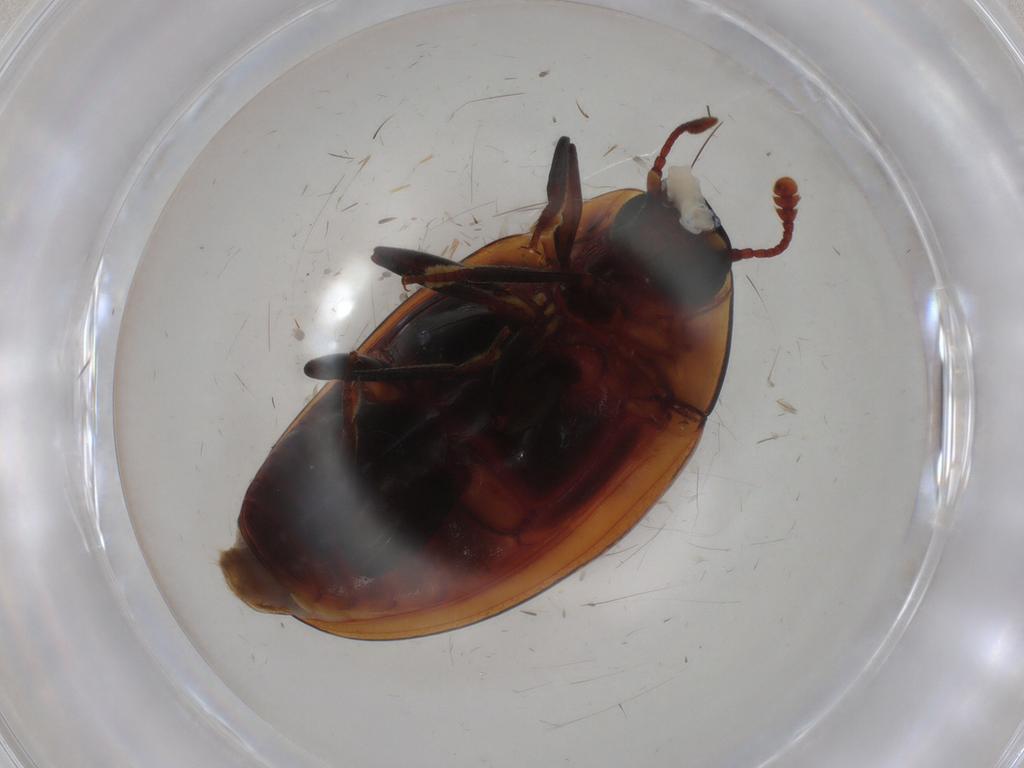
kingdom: Animalia
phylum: Arthropoda
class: Insecta
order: Coleoptera
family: Zopheridae
